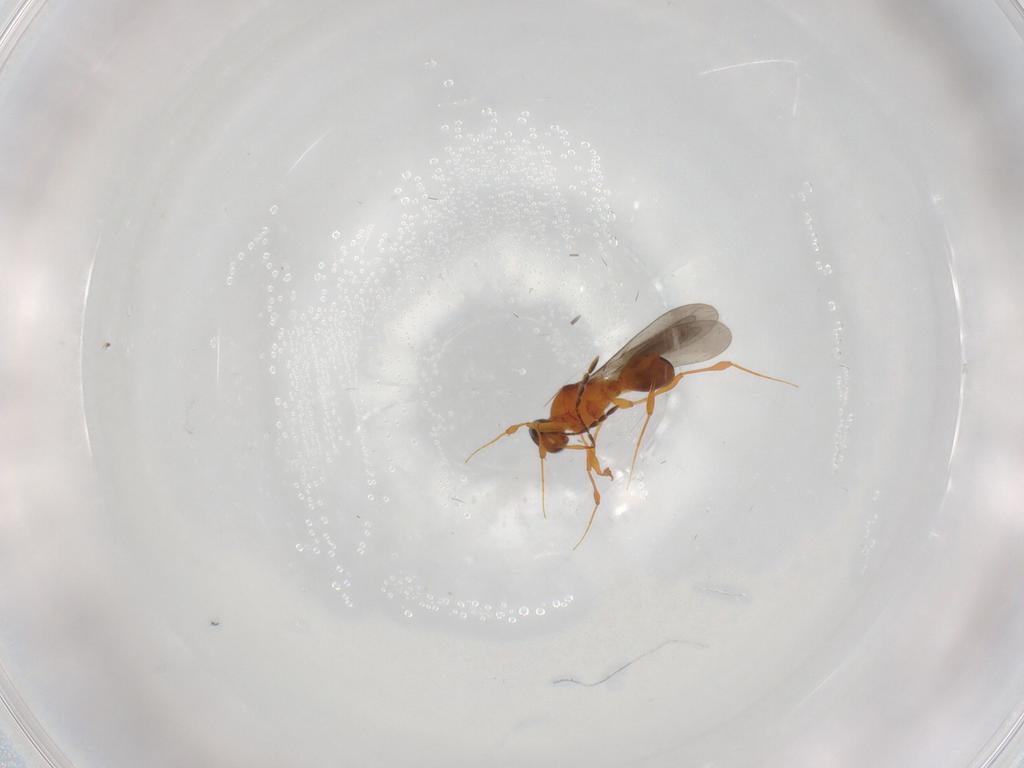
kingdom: Animalia
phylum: Arthropoda
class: Insecta
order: Hymenoptera
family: Platygastridae
